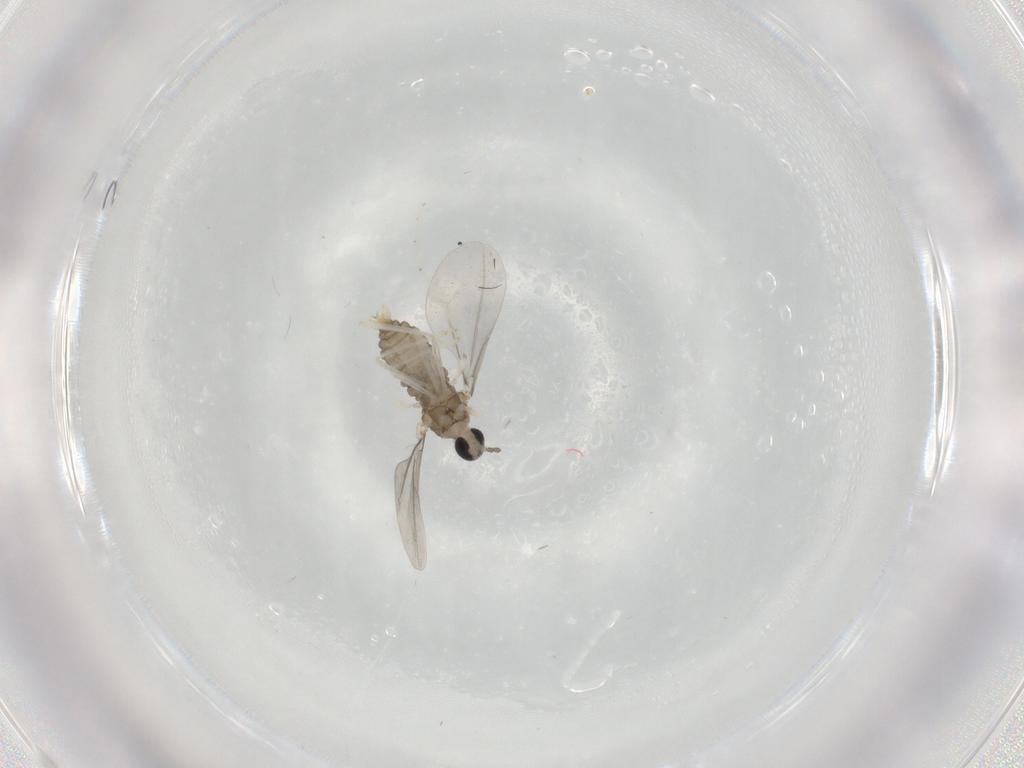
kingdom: Animalia
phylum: Arthropoda
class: Insecta
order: Diptera
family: Cecidomyiidae
